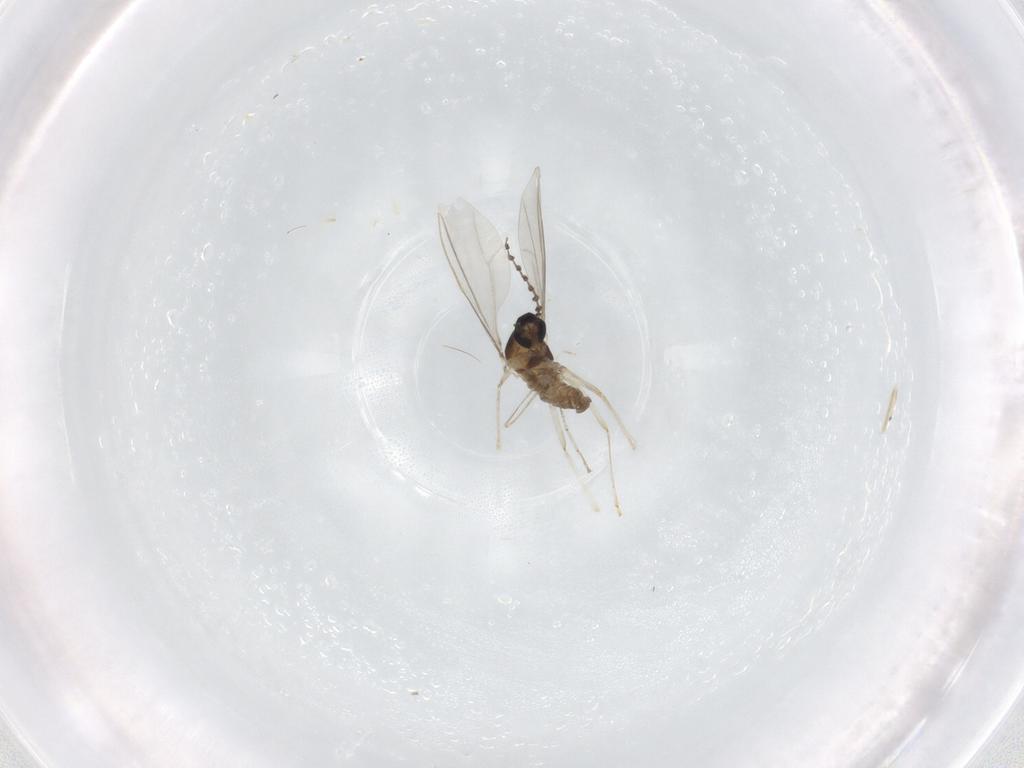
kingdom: Animalia
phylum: Arthropoda
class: Insecta
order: Diptera
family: Cecidomyiidae
